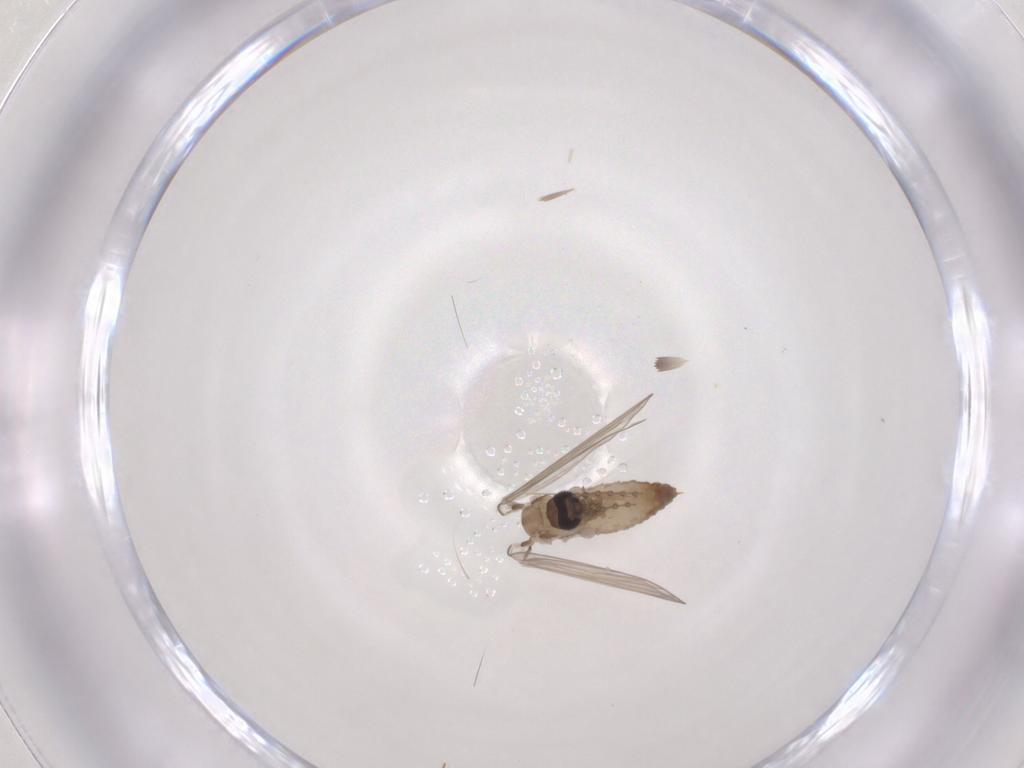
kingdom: Animalia
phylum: Arthropoda
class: Insecta
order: Diptera
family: Psychodidae
